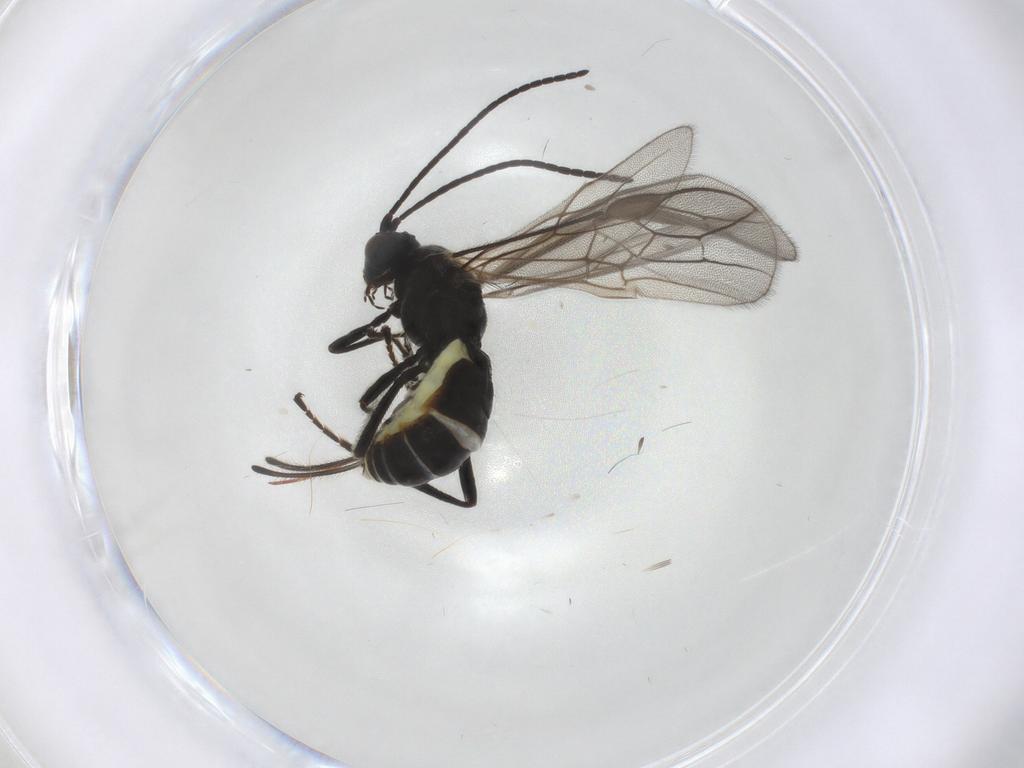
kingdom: Animalia
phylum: Arthropoda
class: Insecta
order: Hymenoptera
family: Braconidae
